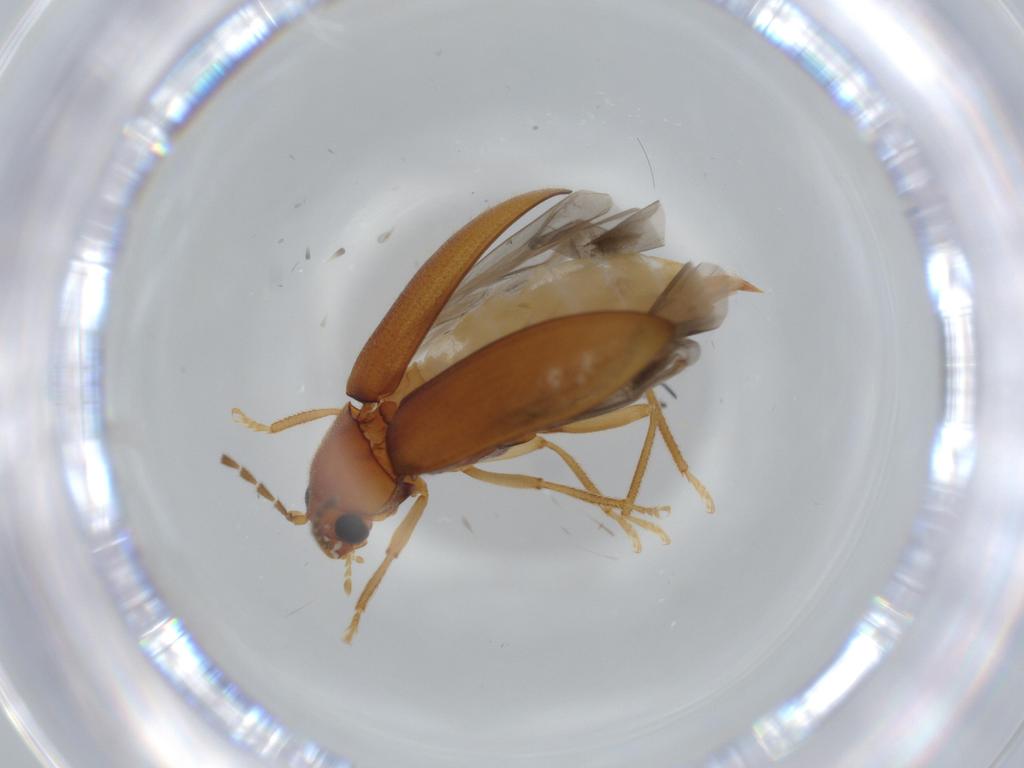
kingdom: Animalia
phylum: Arthropoda
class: Insecta
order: Coleoptera
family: Ptilodactylidae
